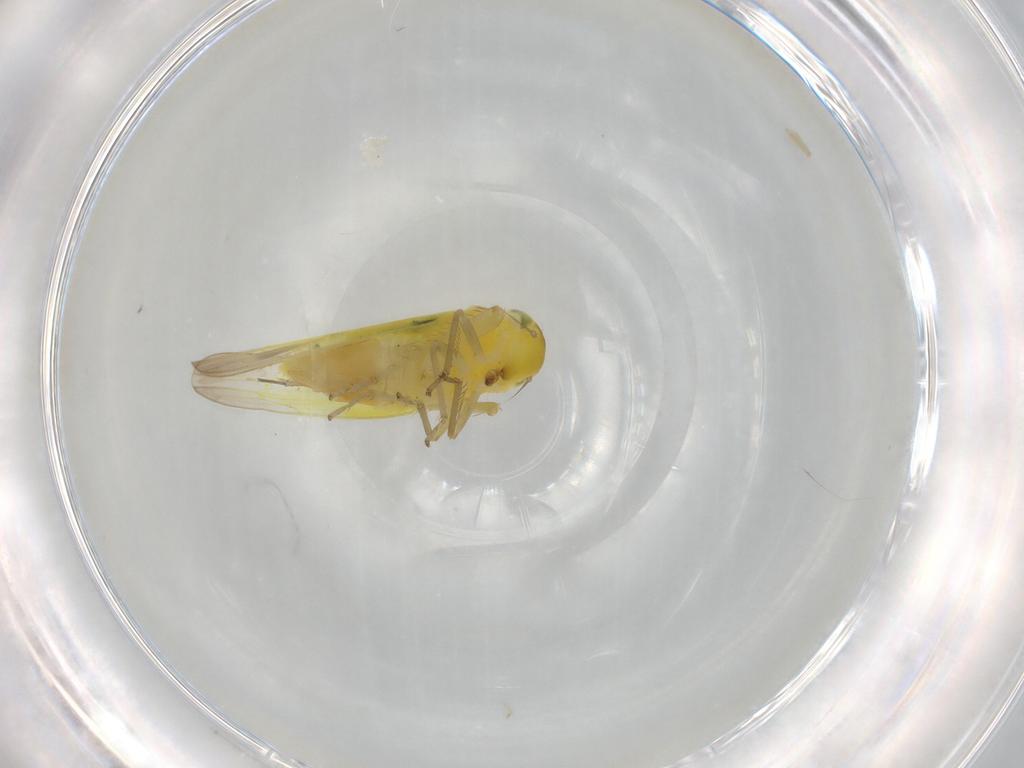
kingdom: Animalia
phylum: Arthropoda
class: Insecta
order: Hemiptera
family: Cicadellidae
